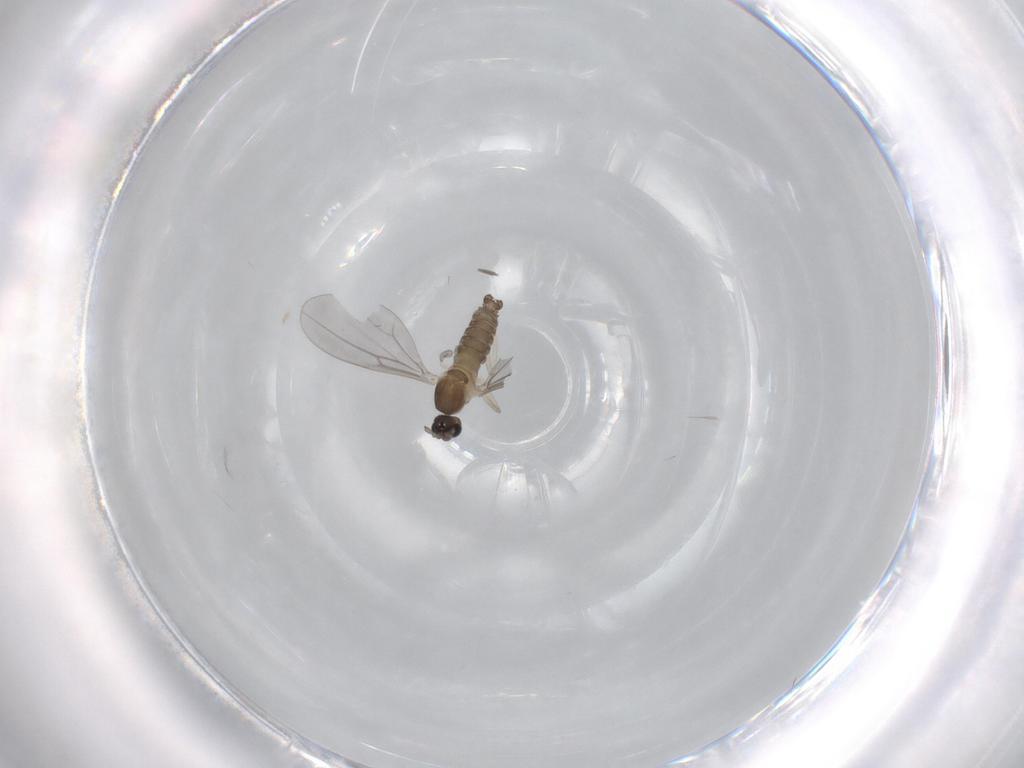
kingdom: Animalia
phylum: Arthropoda
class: Insecta
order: Diptera
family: Cecidomyiidae
